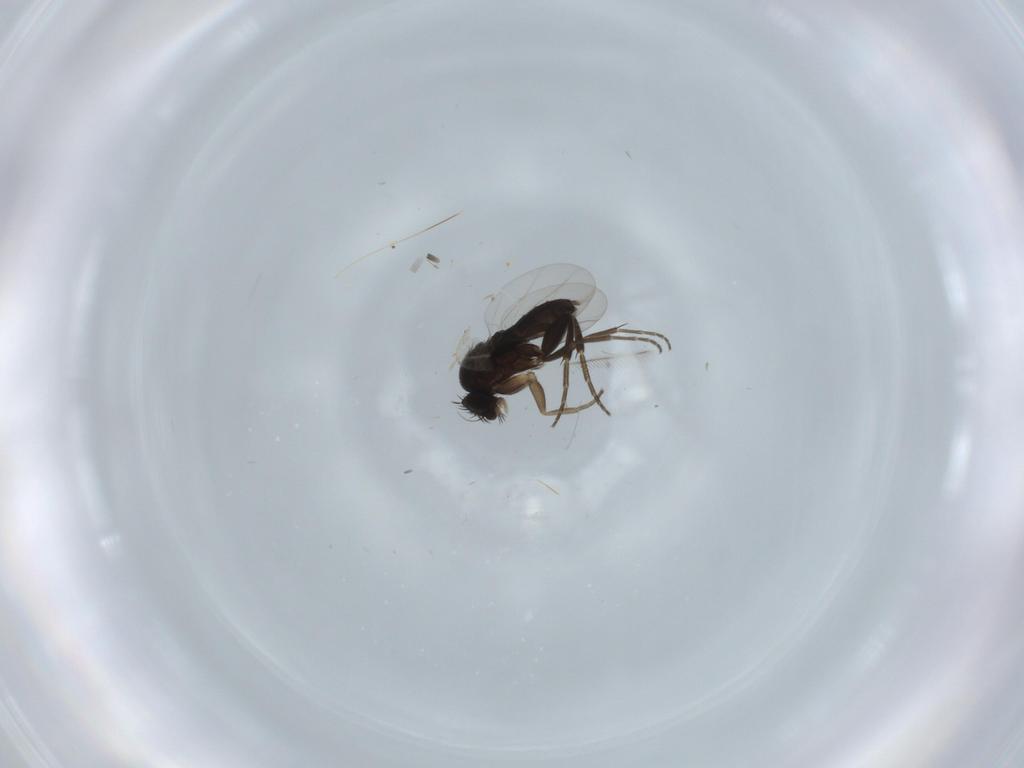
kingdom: Animalia
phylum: Arthropoda
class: Insecta
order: Diptera
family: Phoridae
